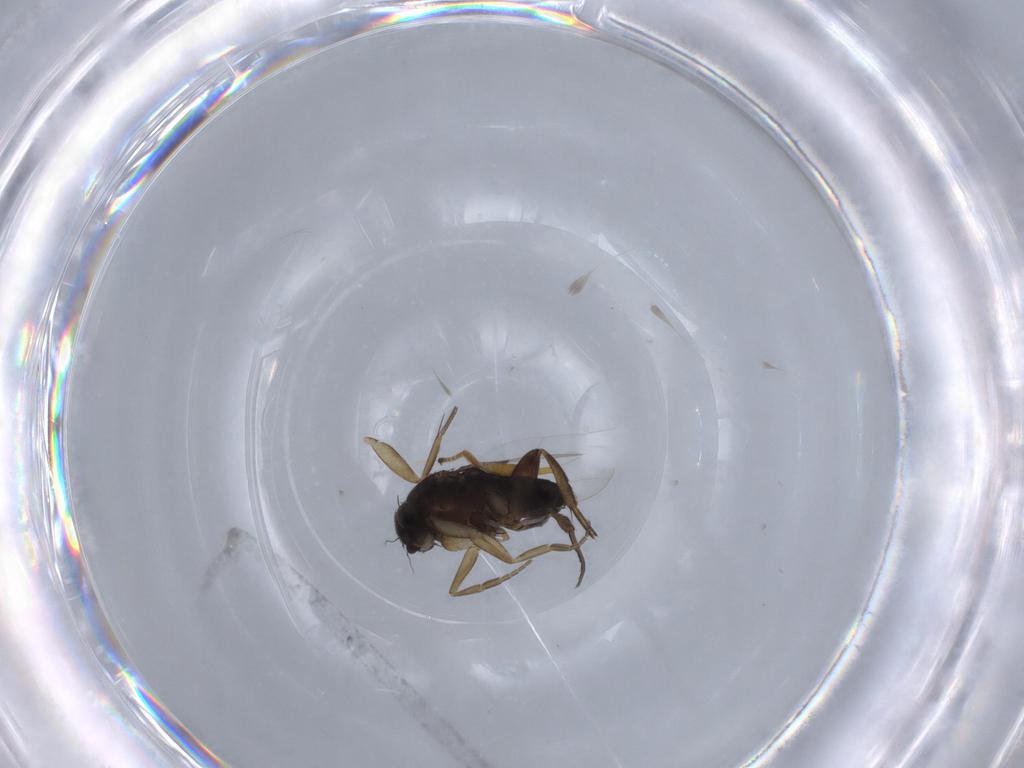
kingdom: Animalia
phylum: Arthropoda
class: Insecta
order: Diptera
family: Phoridae
